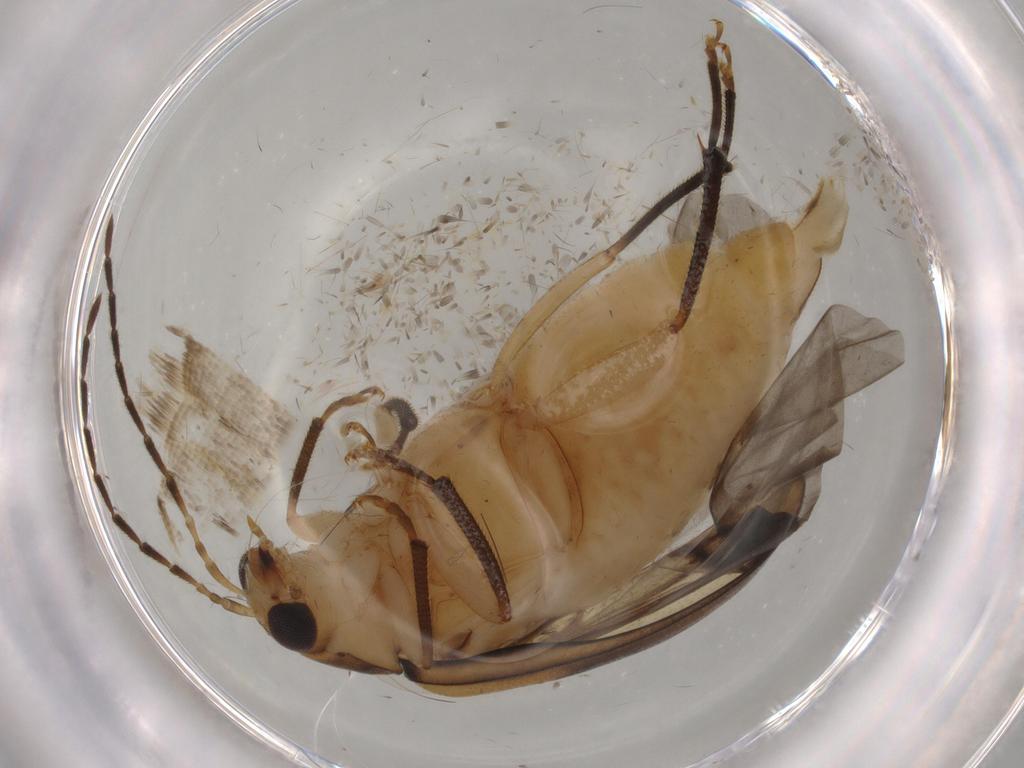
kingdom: Animalia
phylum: Arthropoda
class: Insecta
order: Coleoptera
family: Chrysomelidae
